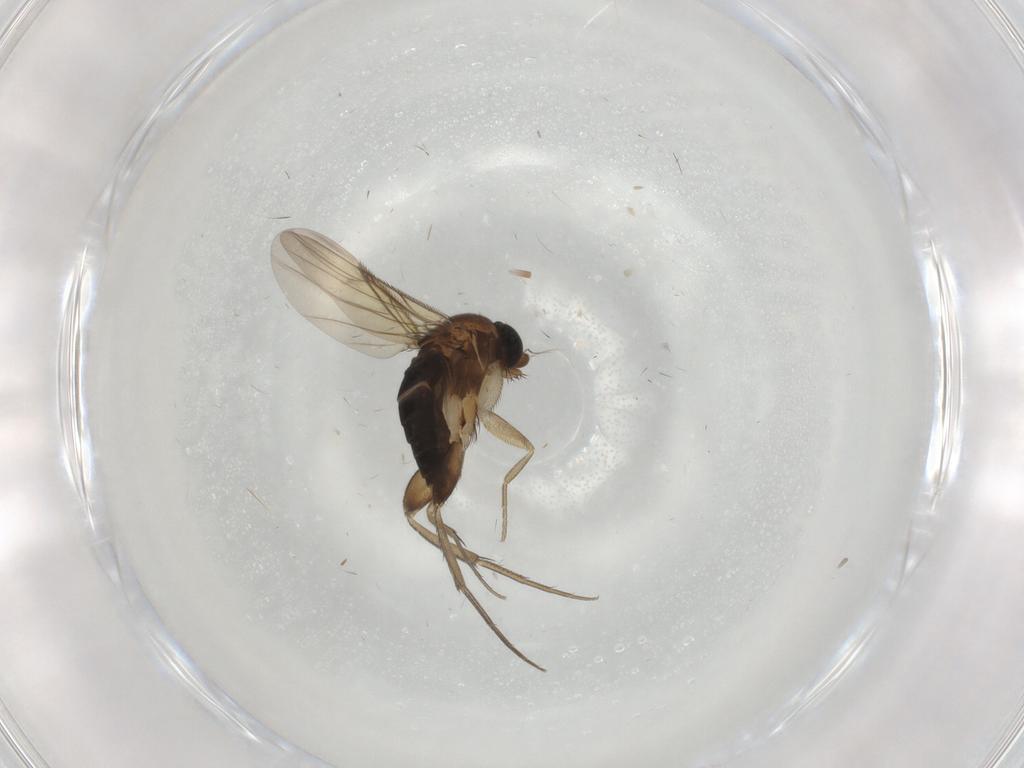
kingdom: Animalia
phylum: Arthropoda
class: Insecta
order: Diptera
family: Phoridae
